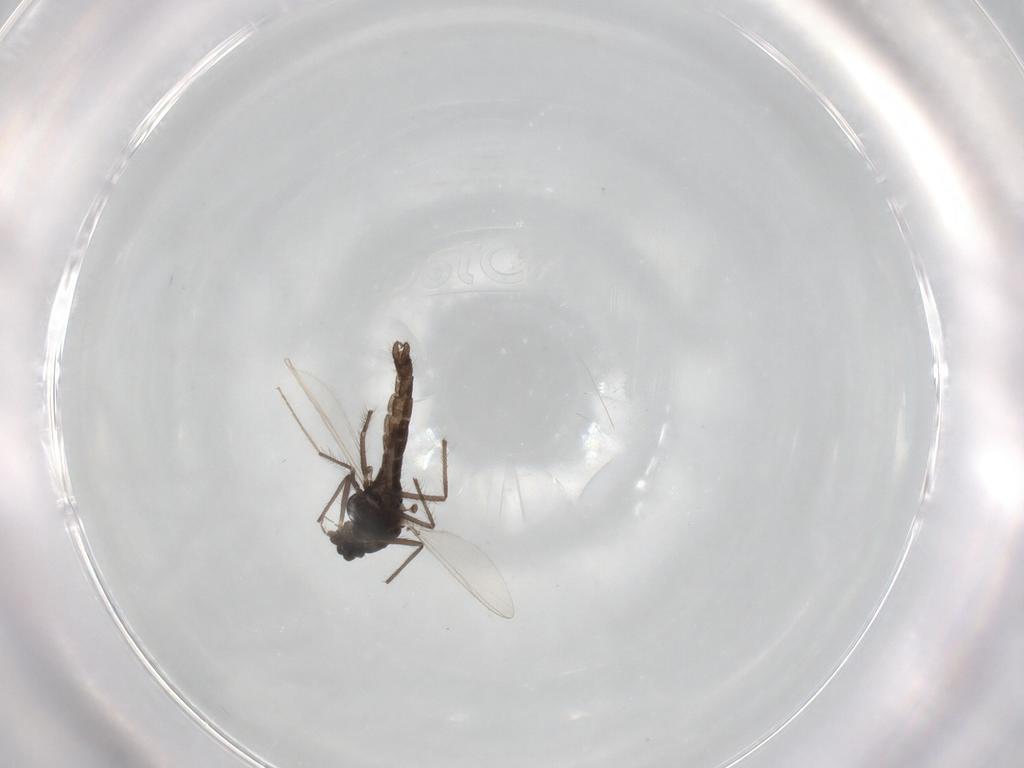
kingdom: Animalia
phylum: Arthropoda
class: Insecta
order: Diptera
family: Chironomidae
